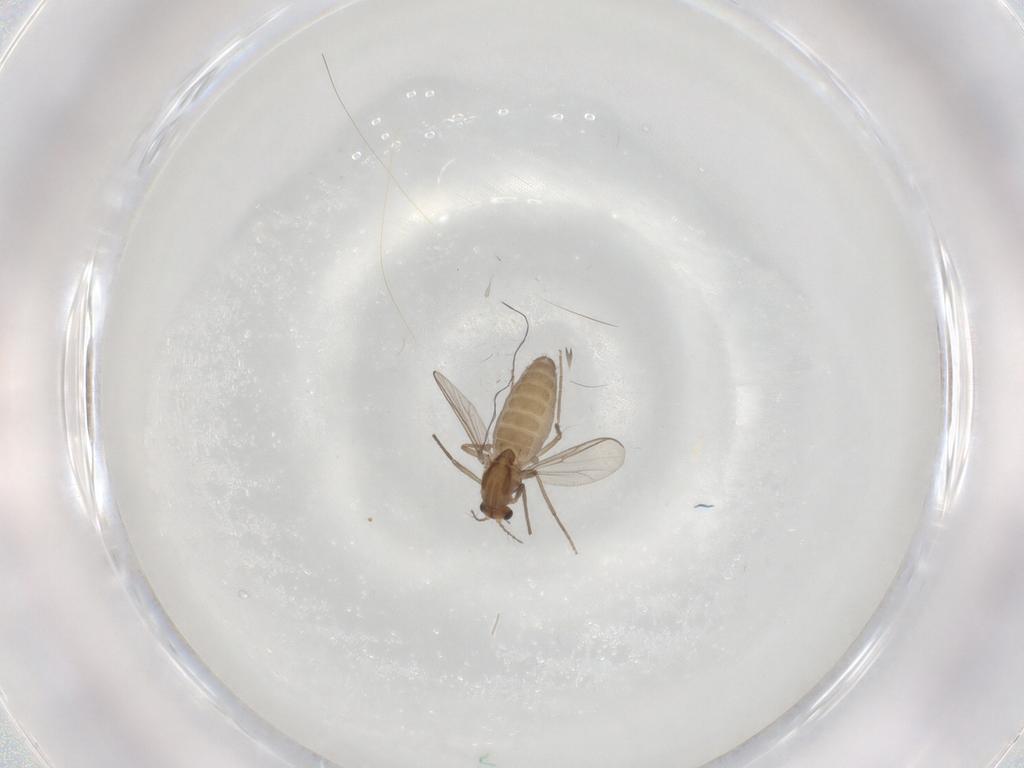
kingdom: Animalia
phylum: Arthropoda
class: Insecta
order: Diptera
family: Chironomidae
